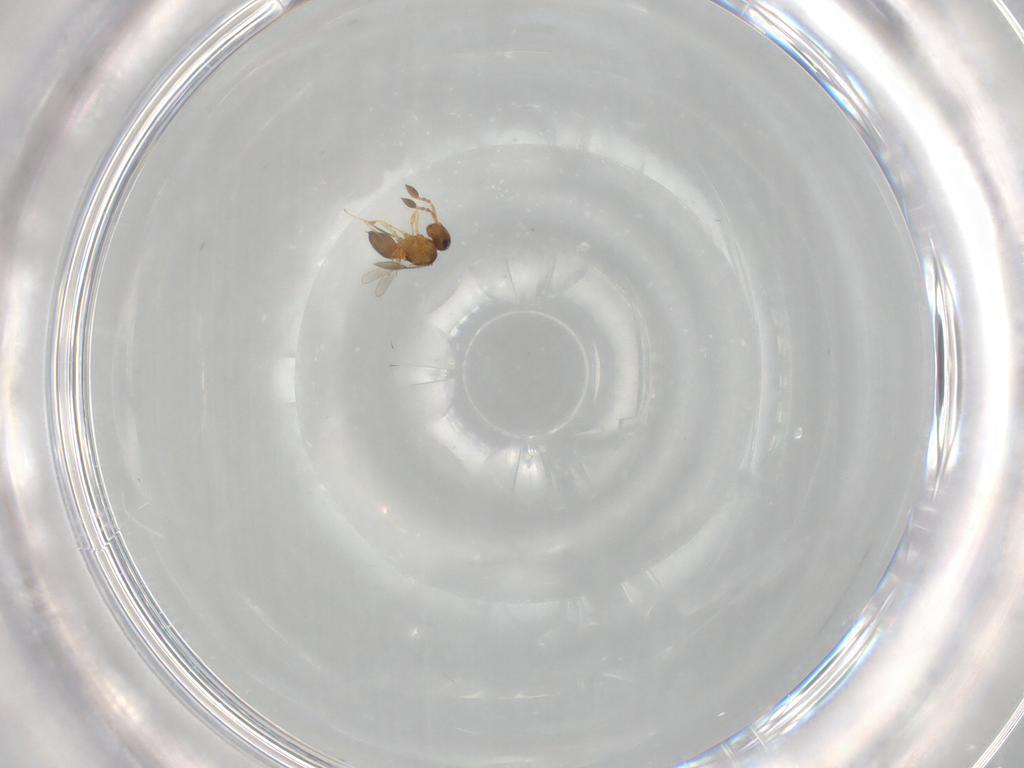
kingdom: Animalia
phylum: Arthropoda
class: Insecta
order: Hymenoptera
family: Scelionidae
